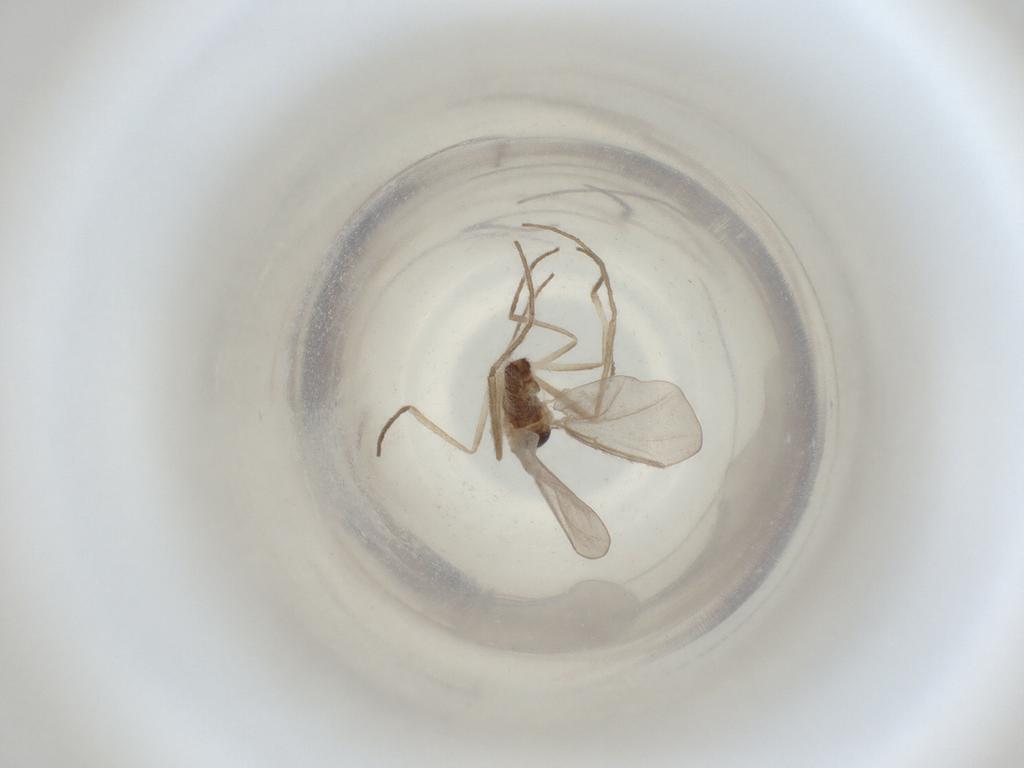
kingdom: Animalia
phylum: Arthropoda
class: Insecta
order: Diptera
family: Cecidomyiidae
